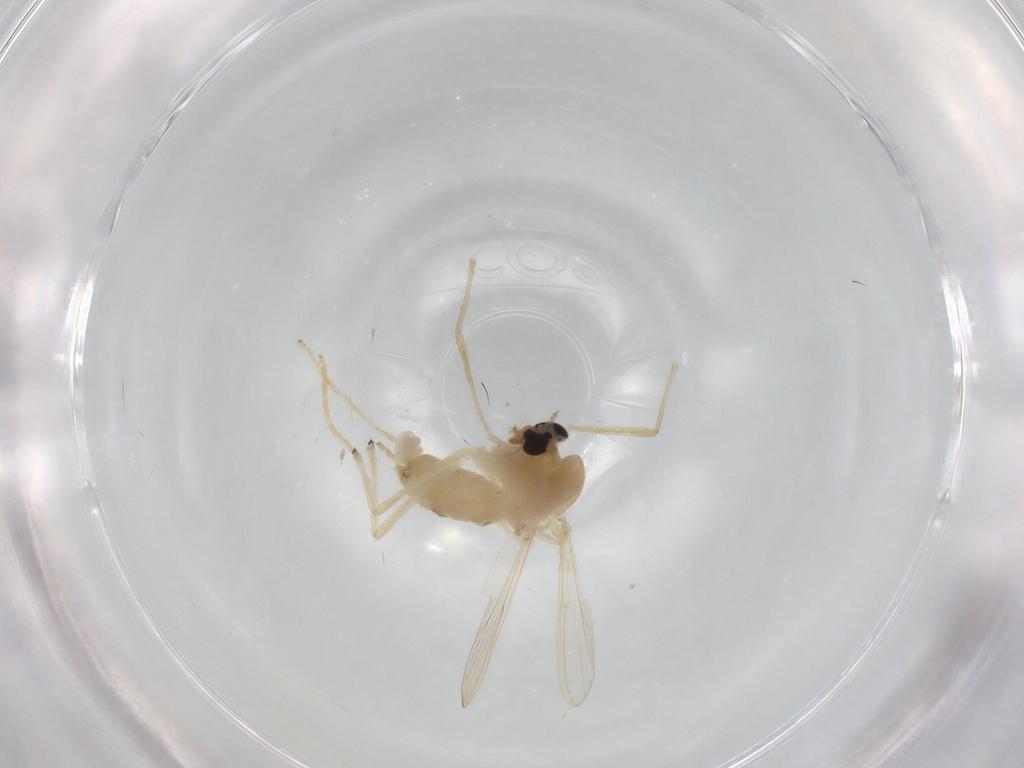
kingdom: Animalia
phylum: Arthropoda
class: Insecta
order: Diptera
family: Chironomidae
